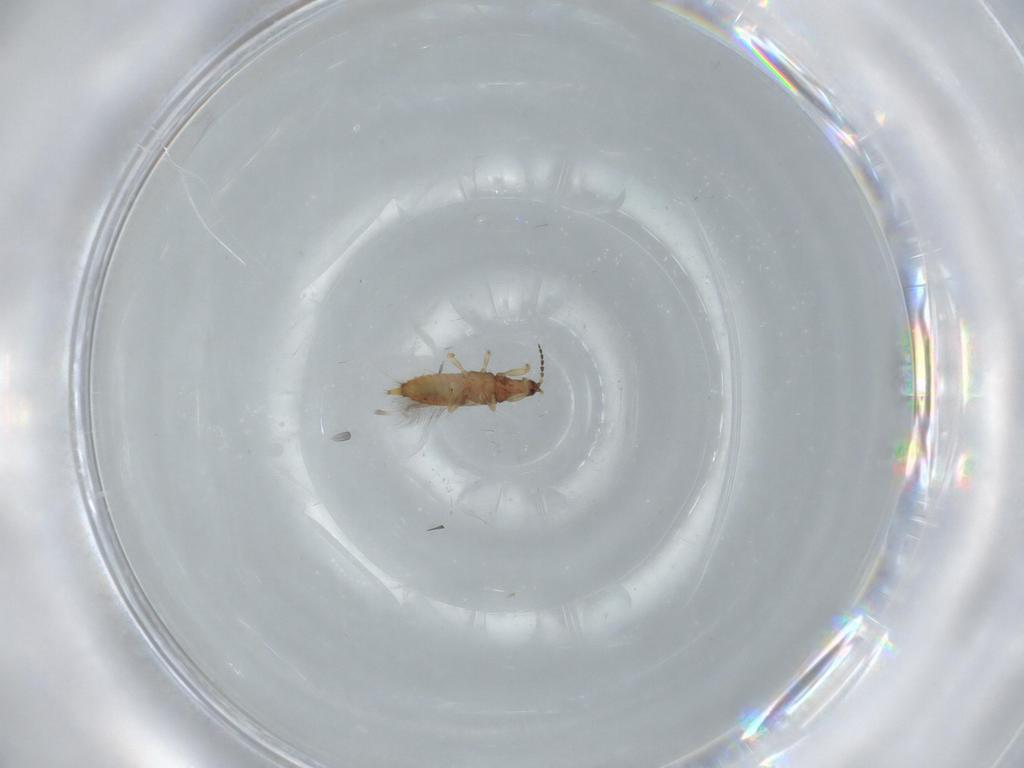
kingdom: Animalia
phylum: Arthropoda
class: Insecta
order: Thysanoptera
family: Phlaeothripidae
